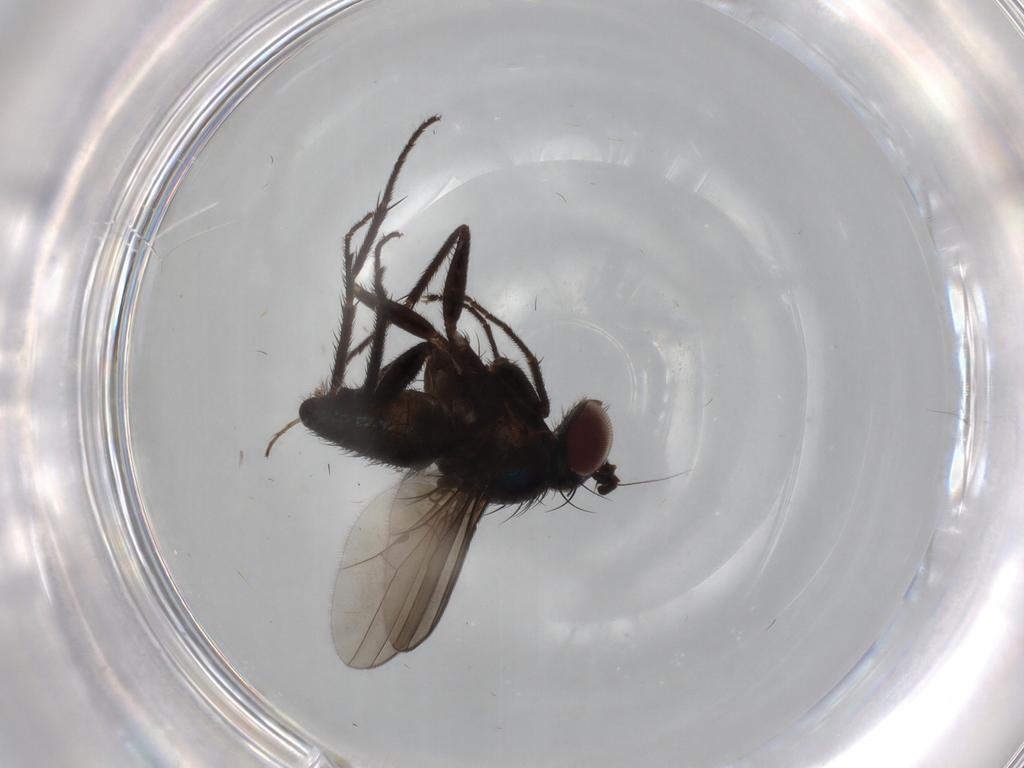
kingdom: Animalia
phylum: Arthropoda
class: Insecta
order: Diptera
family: Dolichopodidae
